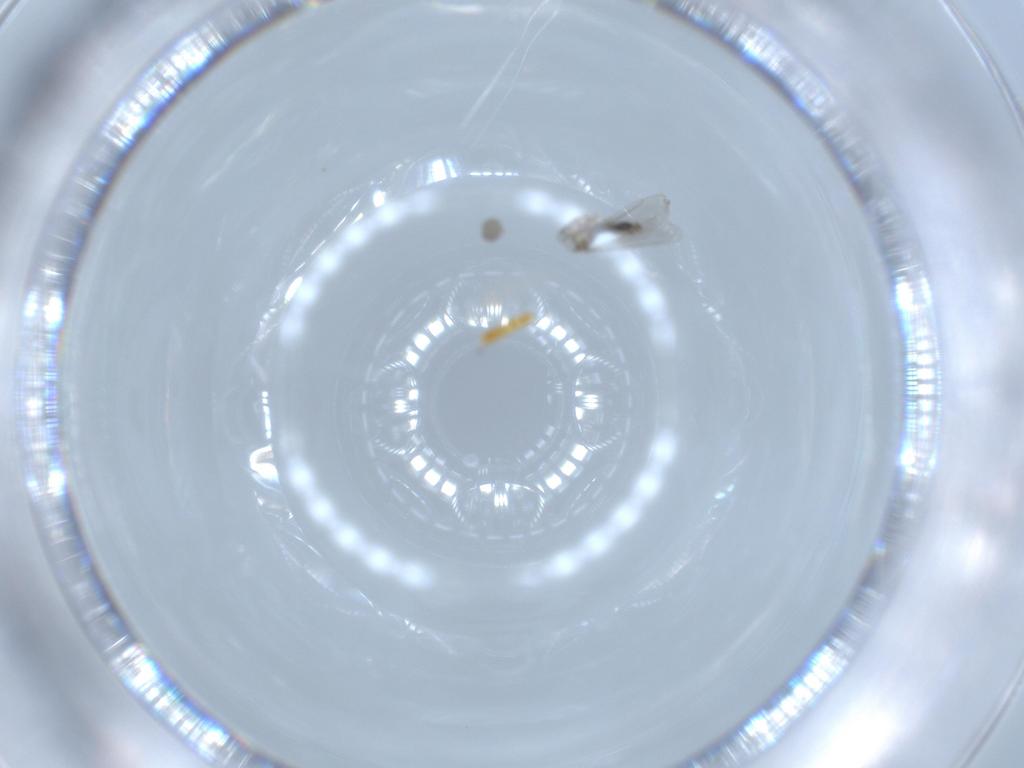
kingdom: Animalia
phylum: Arthropoda
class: Insecta
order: Diptera
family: Cecidomyiidae
